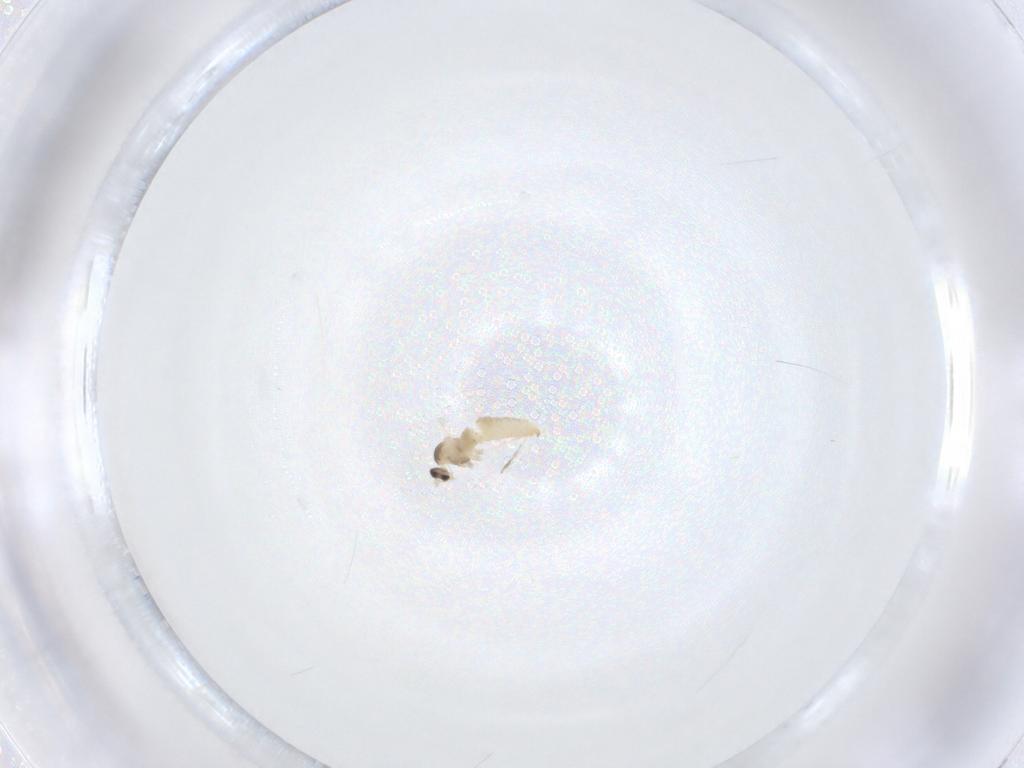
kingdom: Animalia
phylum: Arthropoda
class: Insecta
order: Diptera
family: Cecidomyiidae
